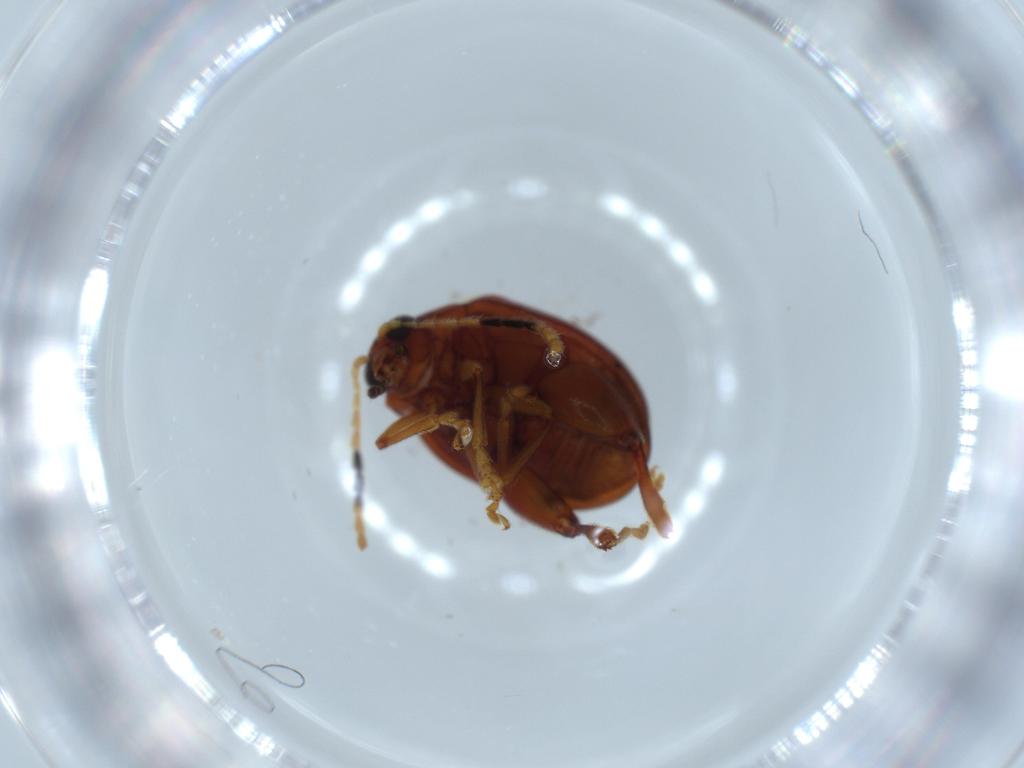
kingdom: Animalia
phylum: Arthropoda
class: Insecta
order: Coleoptera
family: Chrysomelidae
